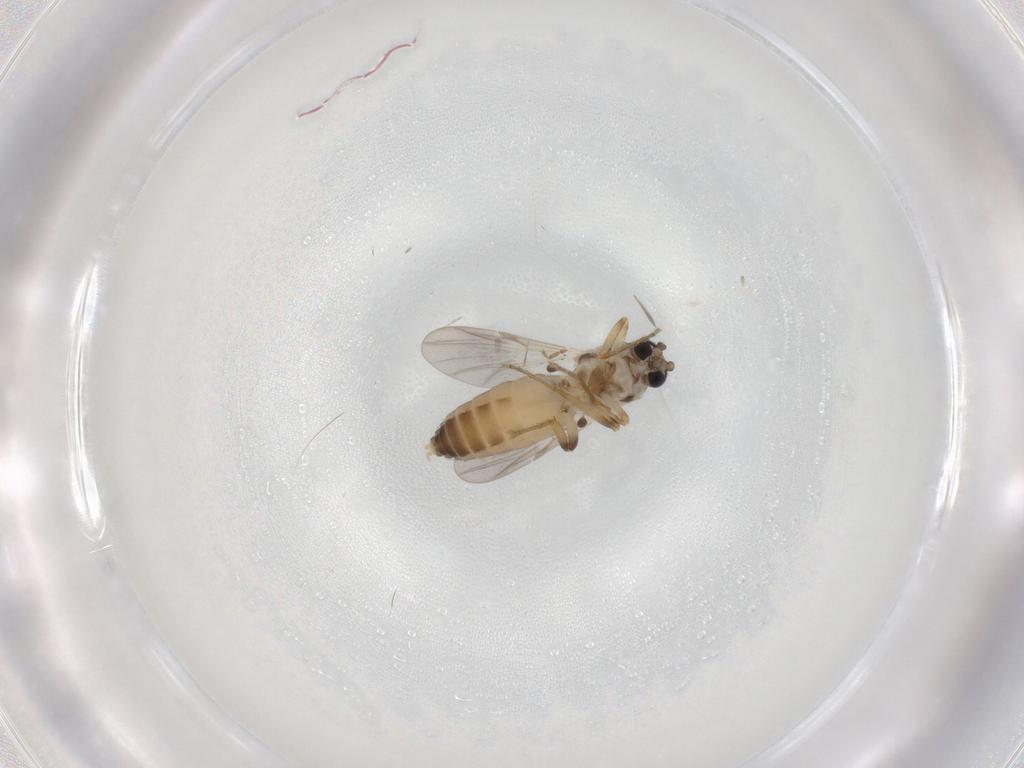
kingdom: Animalia
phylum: Arthropoda
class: Insecta
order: Diptera
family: Ceratopogonidae
